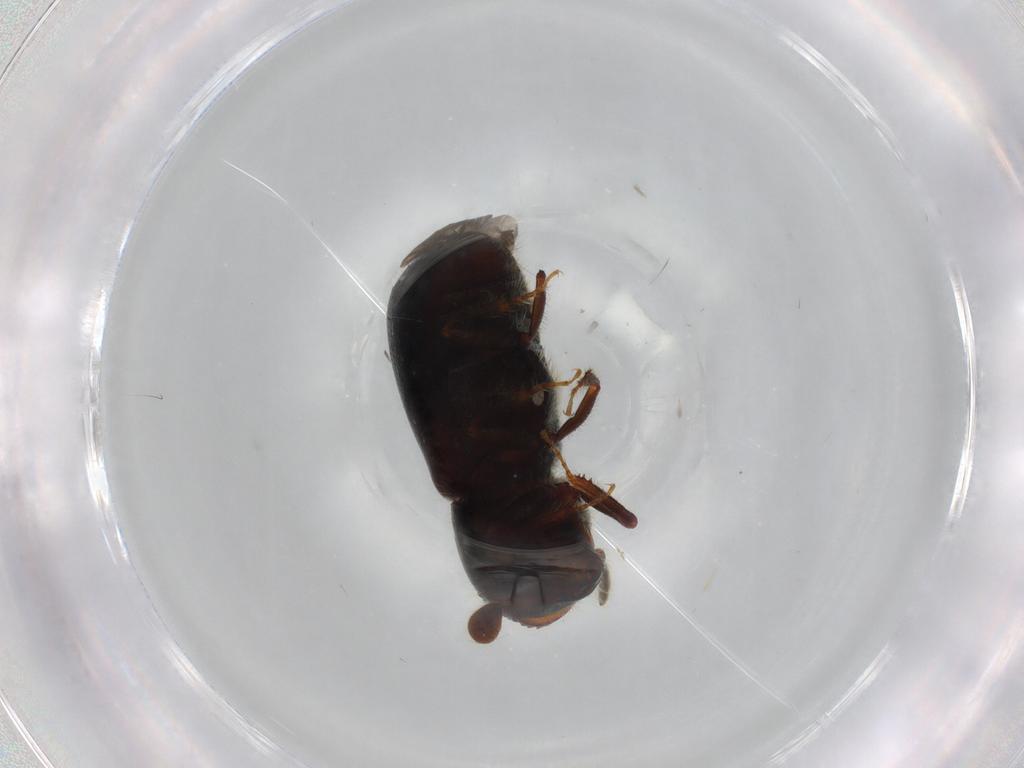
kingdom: Animalia
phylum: Arthropoda
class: Insecta
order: Coleoptera
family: Curculionidae
